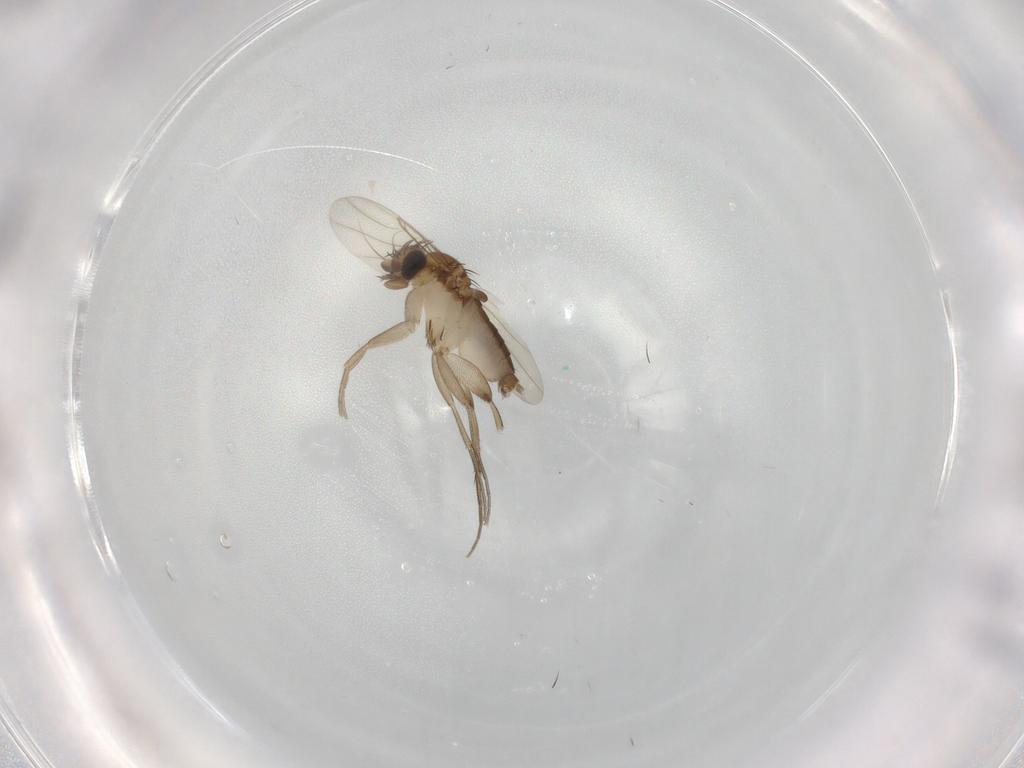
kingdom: Animalia
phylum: Arthropoda
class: Insecta
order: Diptera
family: Phoridae
